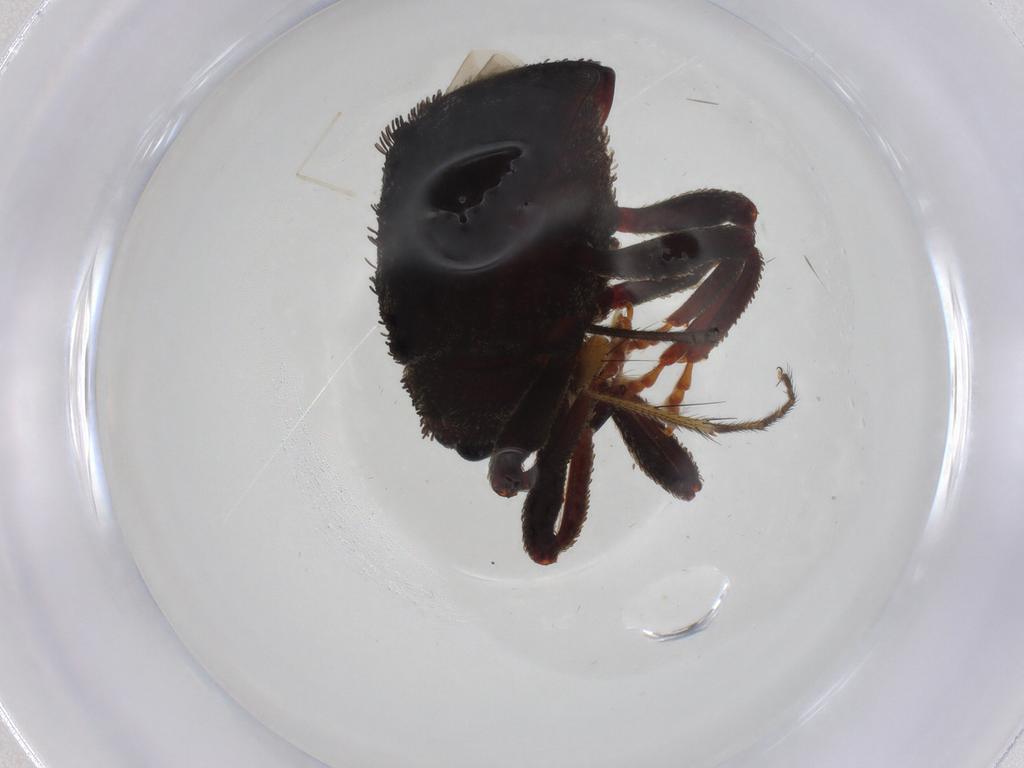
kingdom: Animalia
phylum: Arthropoda
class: Insecta
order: Coleoptera
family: Curculionidae
